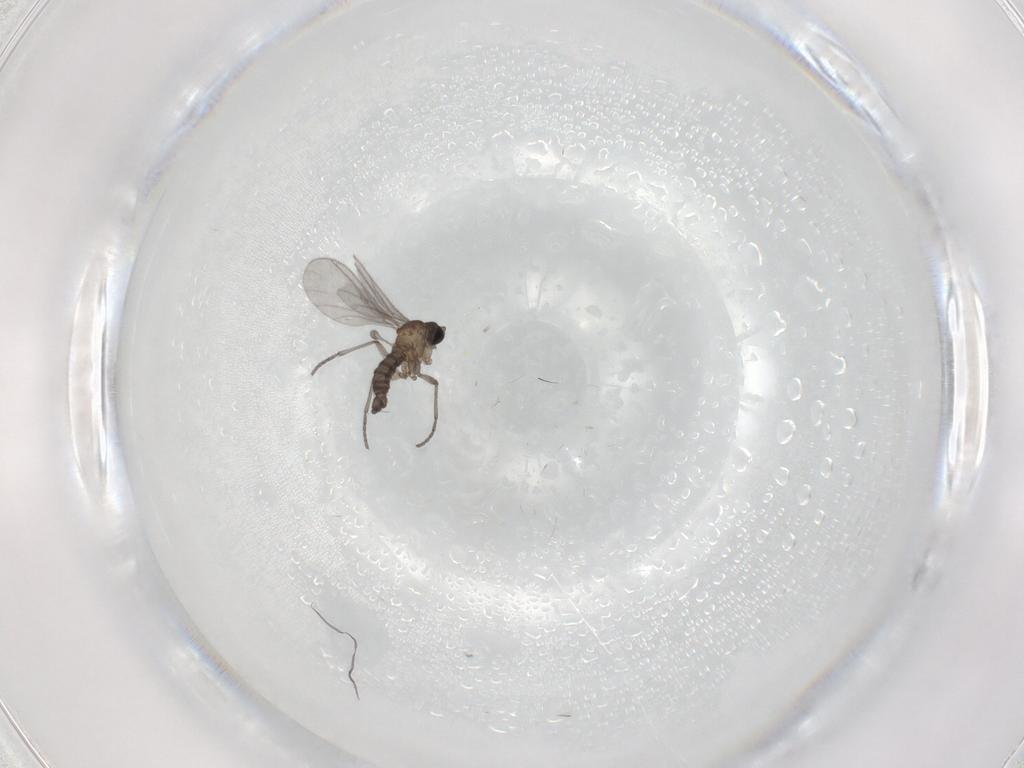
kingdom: Animalia
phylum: Arthropoda
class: Insecta
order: Diptera
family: Sciaridae
